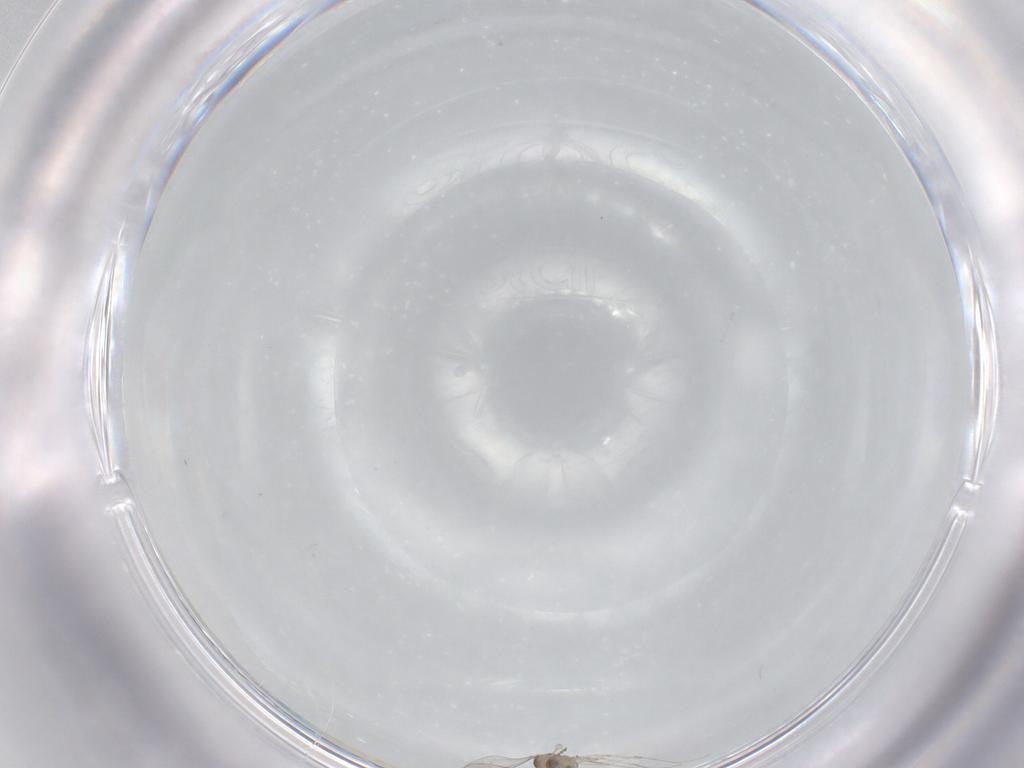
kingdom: Animalia
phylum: Arthropoda
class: Insecta
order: Diptera
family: Cecidomyiidae
